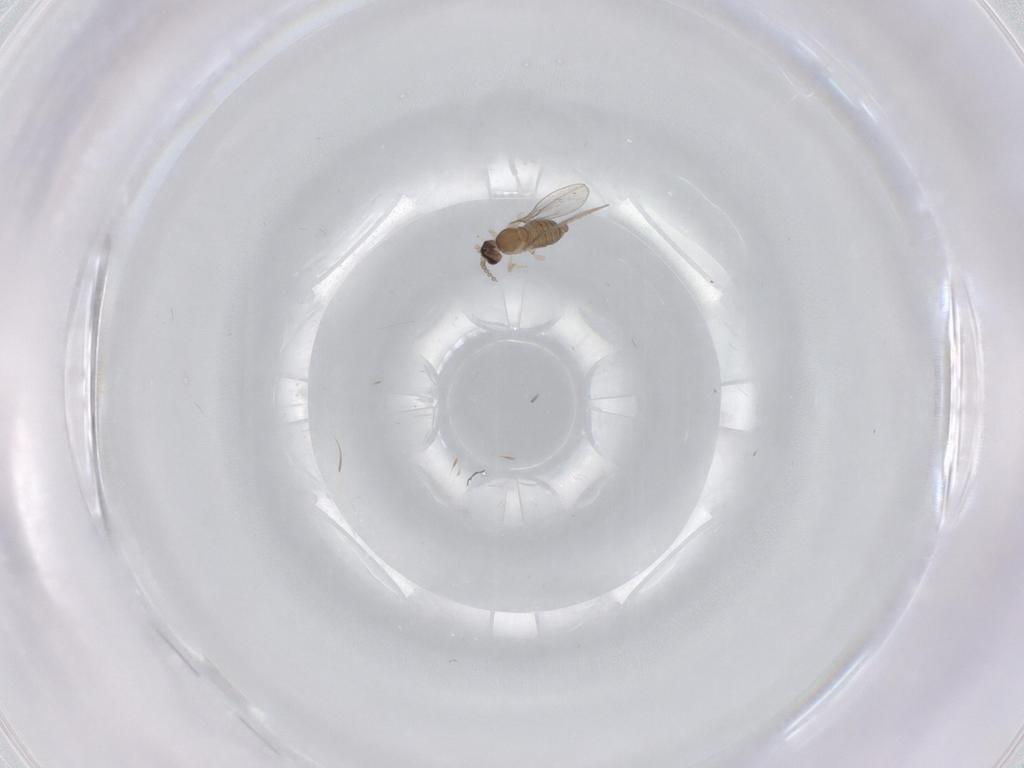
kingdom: Animalia
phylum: Arthropoda
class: Insecta
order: Diptera
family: Cecidomyiidae
